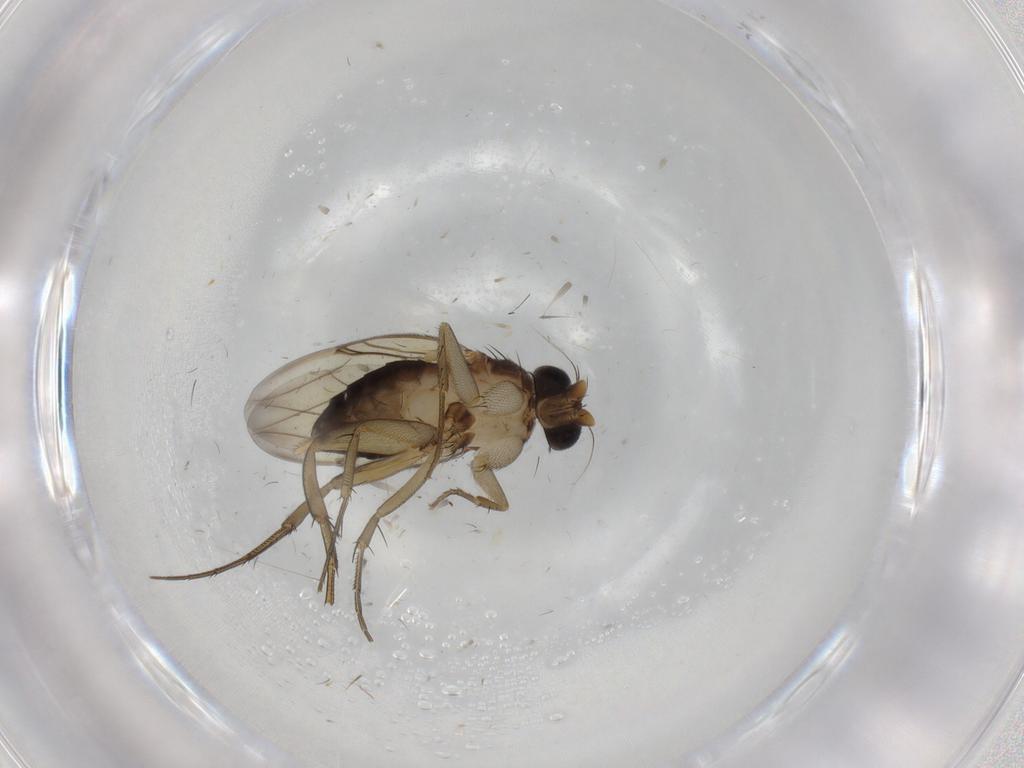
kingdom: Animalia
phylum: Arthropoda
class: Insecta
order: Diptera
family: Phoridae
